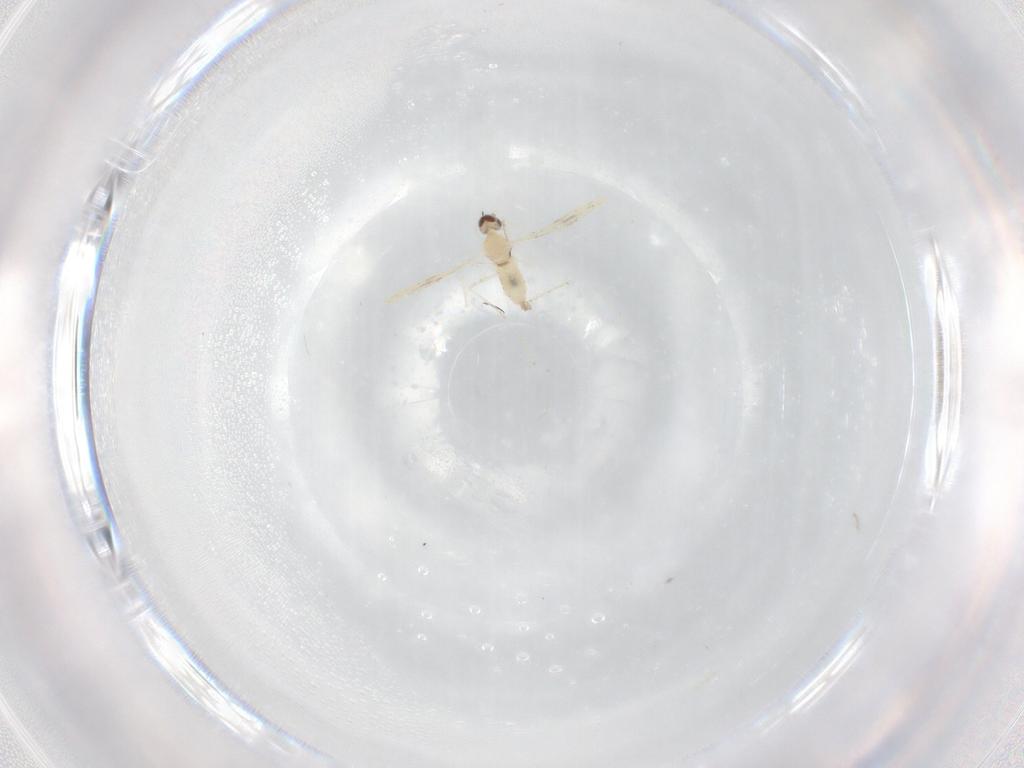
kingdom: Animalia
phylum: Arthropoda
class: Insecta
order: Diptera
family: Cecidomyiidae
